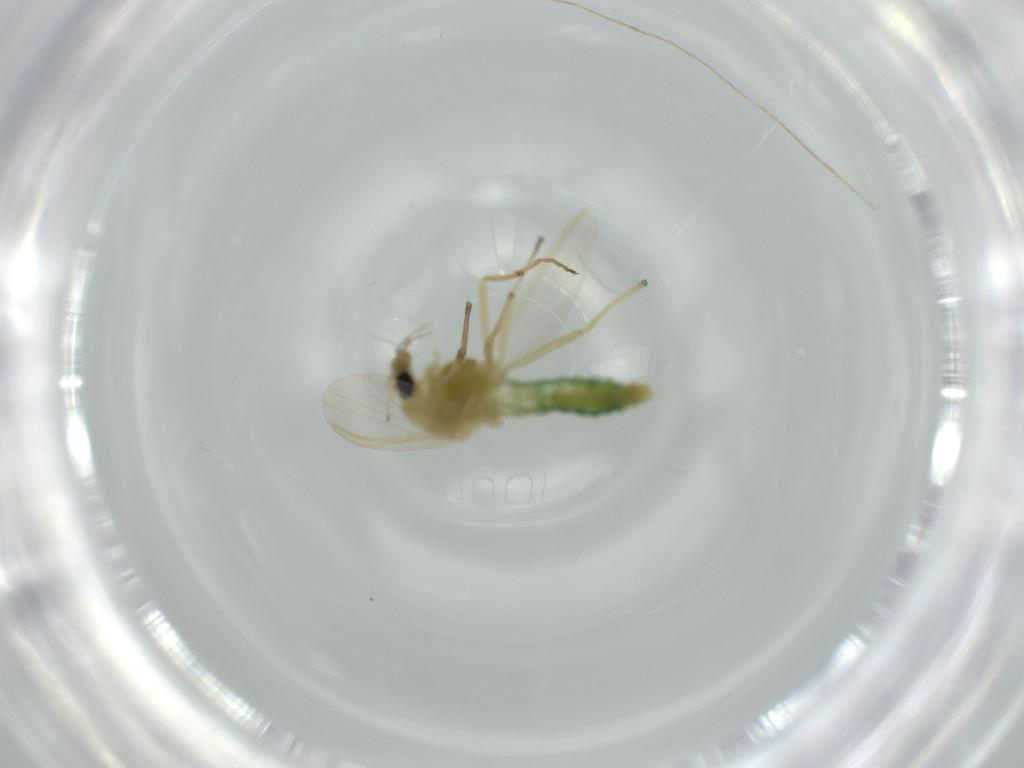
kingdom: Animalia
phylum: Arthropoda
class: Insecta
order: Diptera
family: Chironomidae
